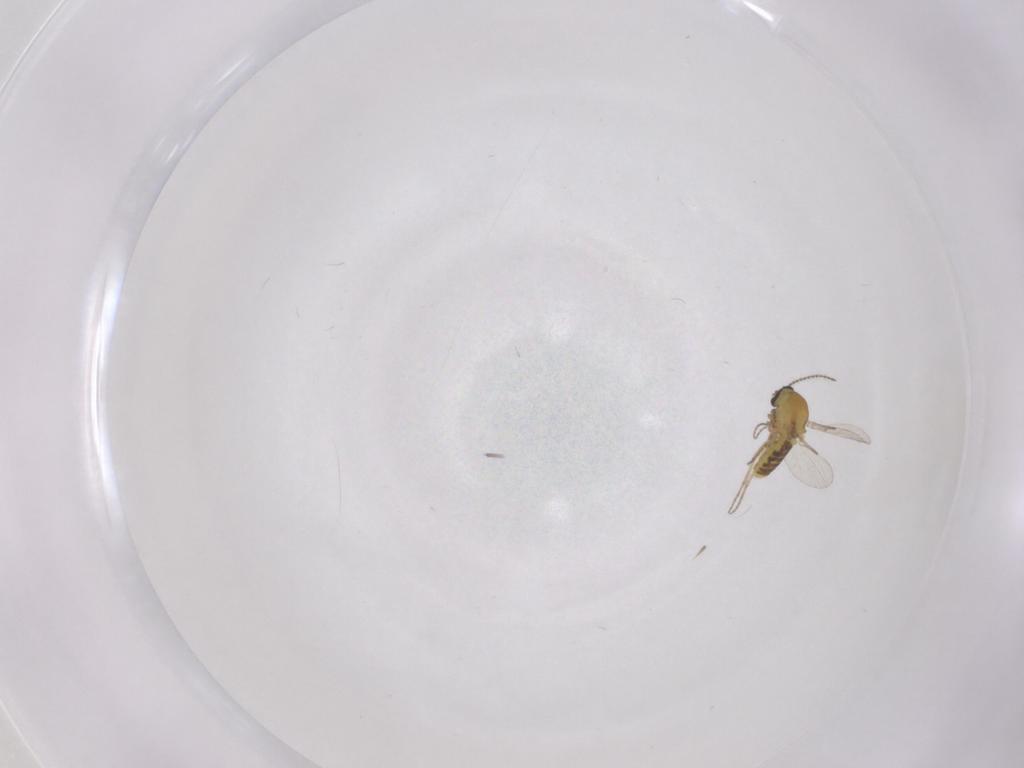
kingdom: Animalia
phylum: Arthropoda
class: Insecta
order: Diptera
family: Ceratopogonidae
